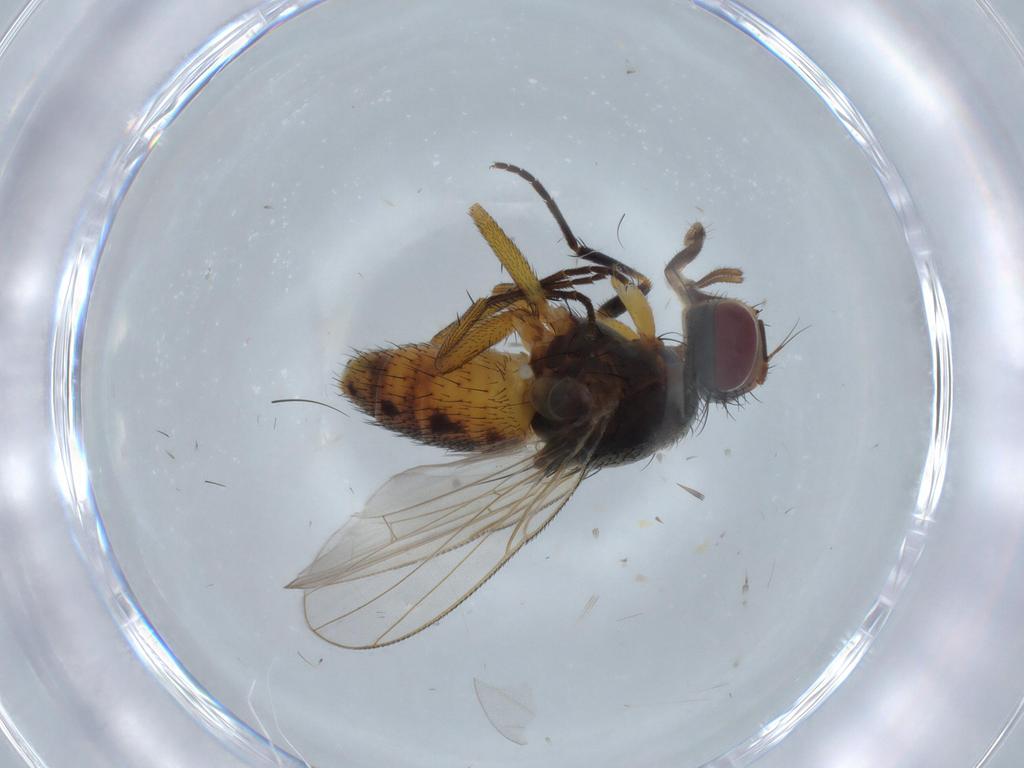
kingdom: Animalia
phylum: Arthropoda
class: Insecta
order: Diptera
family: Muscidae
